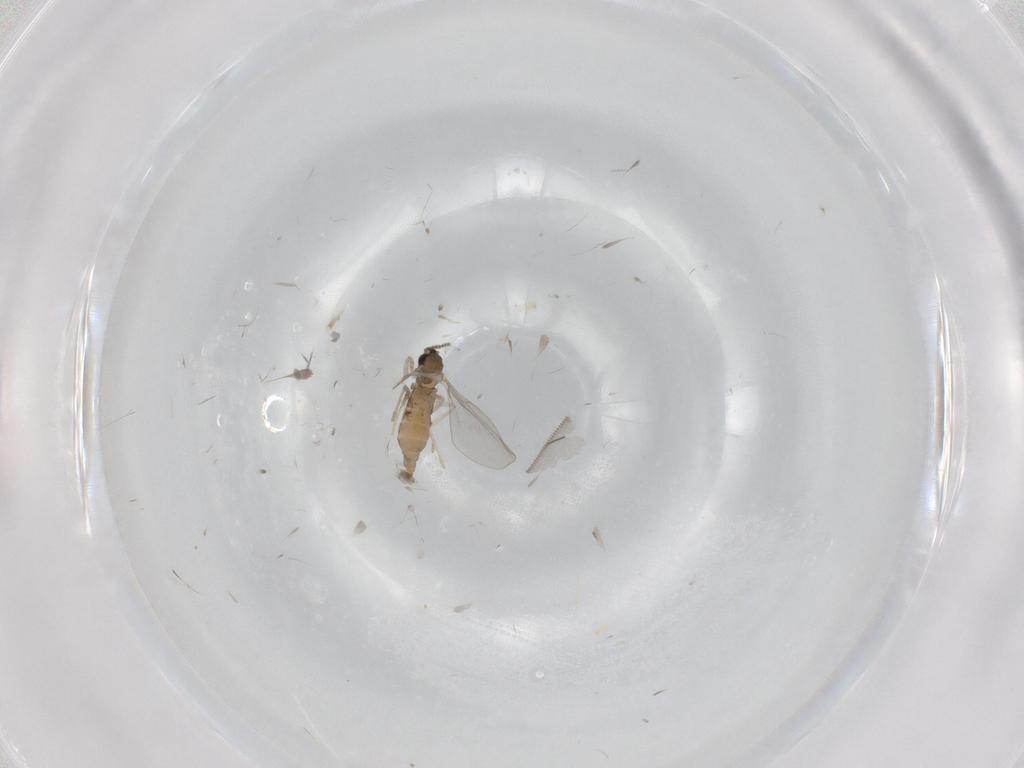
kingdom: Animalia
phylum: Arthropoda
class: Insecta
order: Diptera
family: Cecidomyiidae
